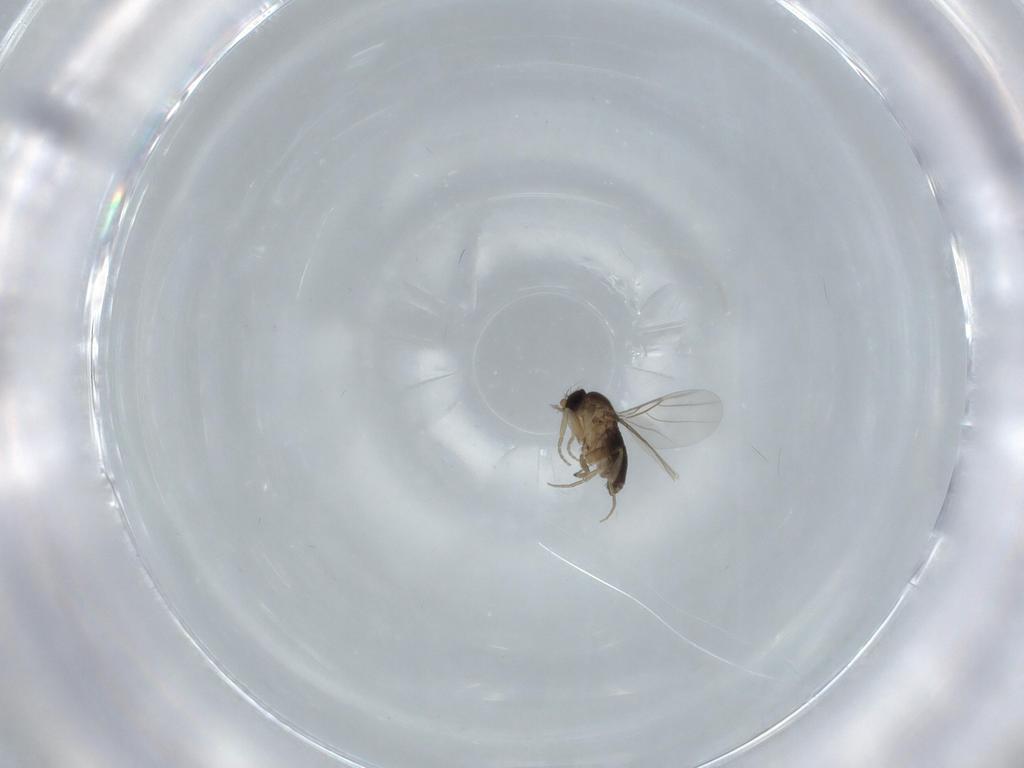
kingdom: Animalia
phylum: Arthropoda
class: Insecta
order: Diptera
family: Phoridae
